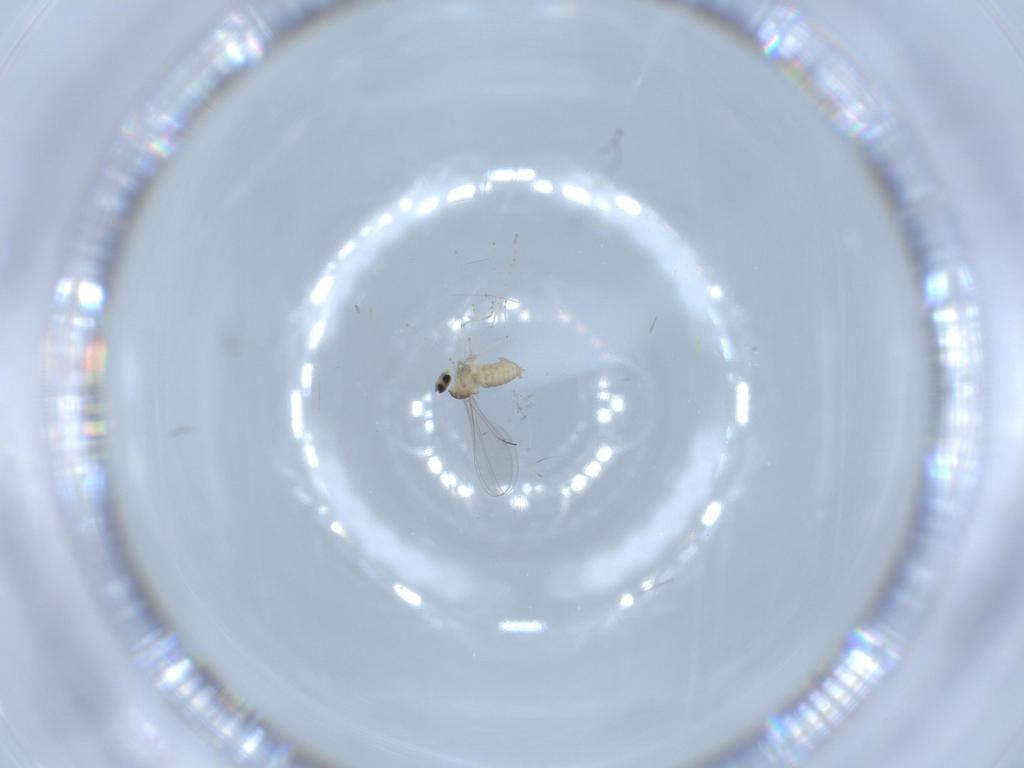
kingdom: Animalia
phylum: Arthropoda
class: Insecta
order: Diptera
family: Cecidomyiidae
